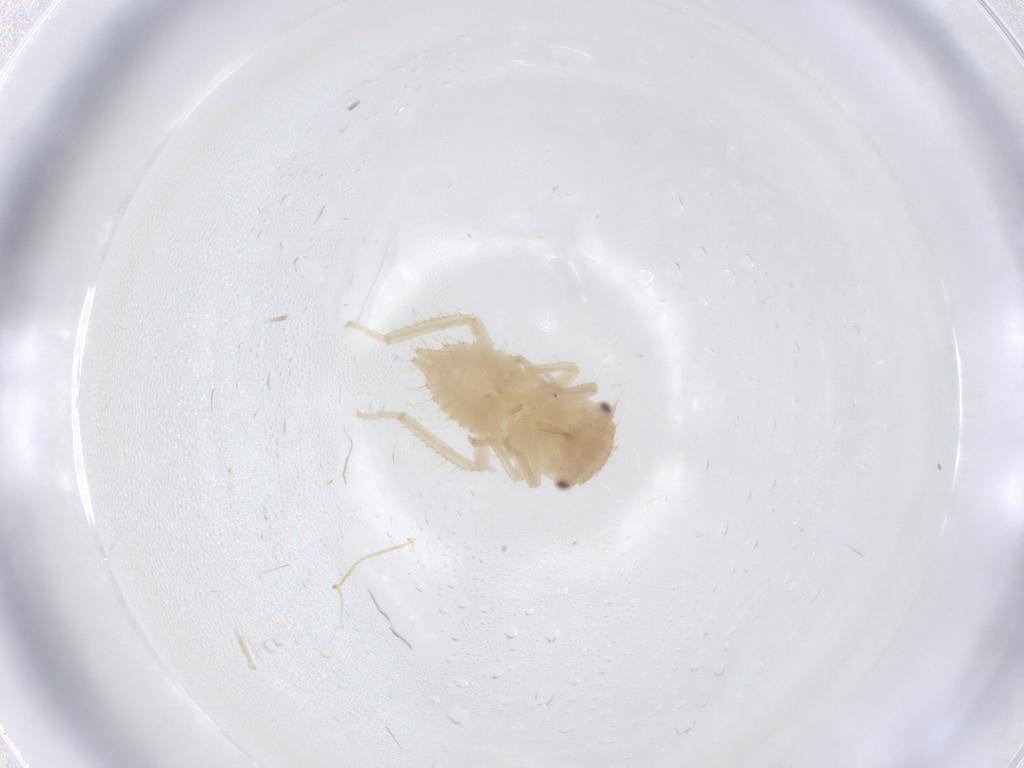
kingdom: Animalia
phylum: Arthropoda
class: Insecta
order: Hemiptera
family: Cicadellidae
